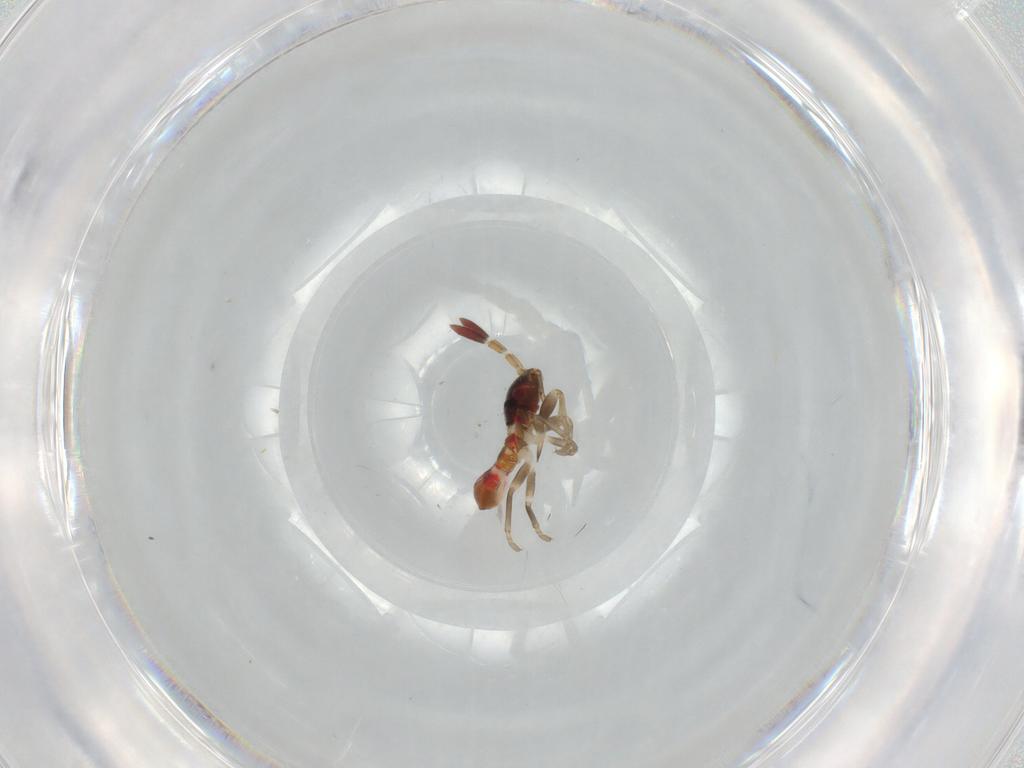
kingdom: Animalia
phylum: Arthropoda
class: Insecta
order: Hemiptera
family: Rhyparochromidae
